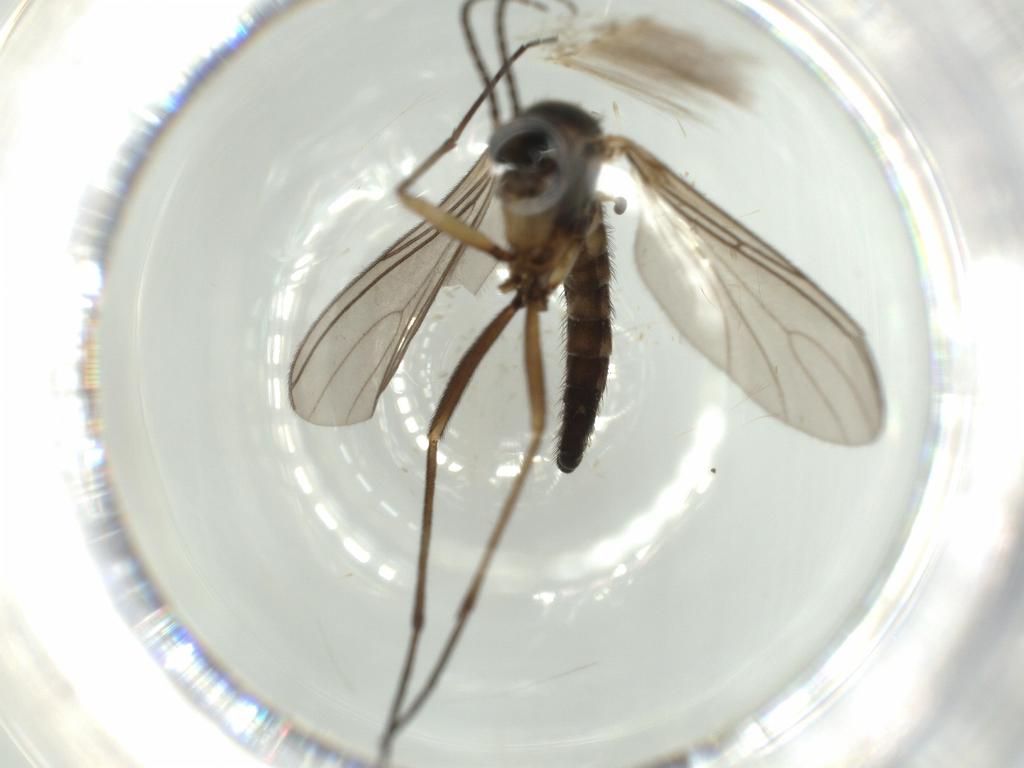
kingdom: Animalia
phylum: Arthropoda
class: Insecta
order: Diptera
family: Sciaridae
